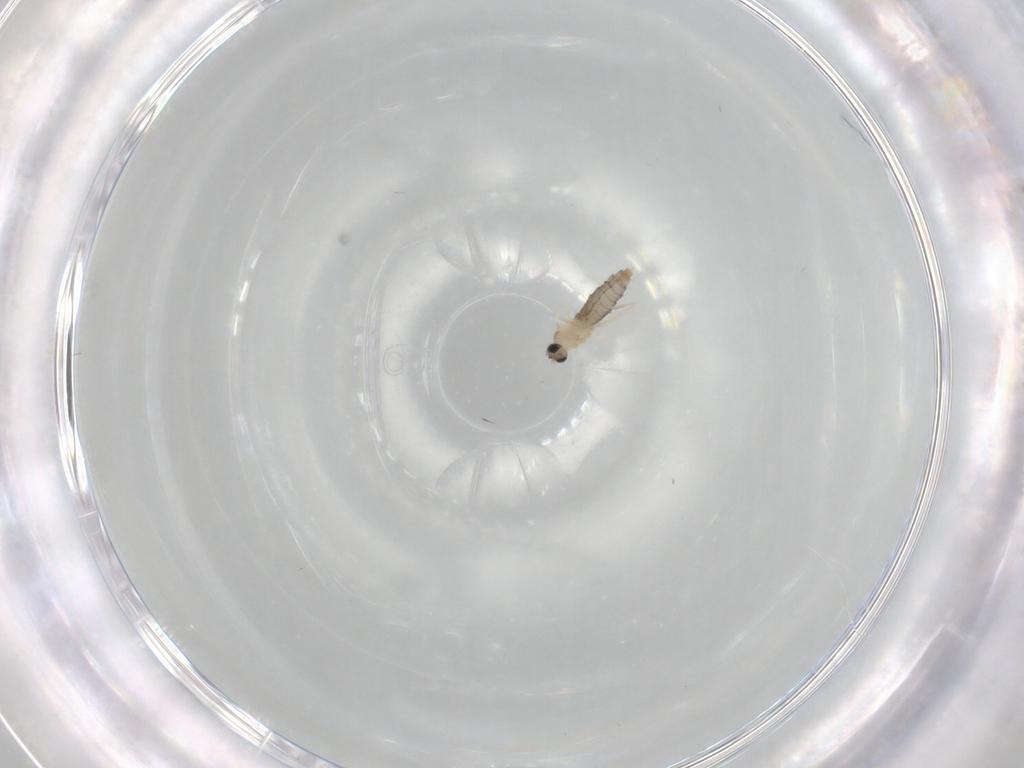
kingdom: Animalia
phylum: Arthropoda
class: Insecta
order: Diptera
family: Cecidomyiidae
